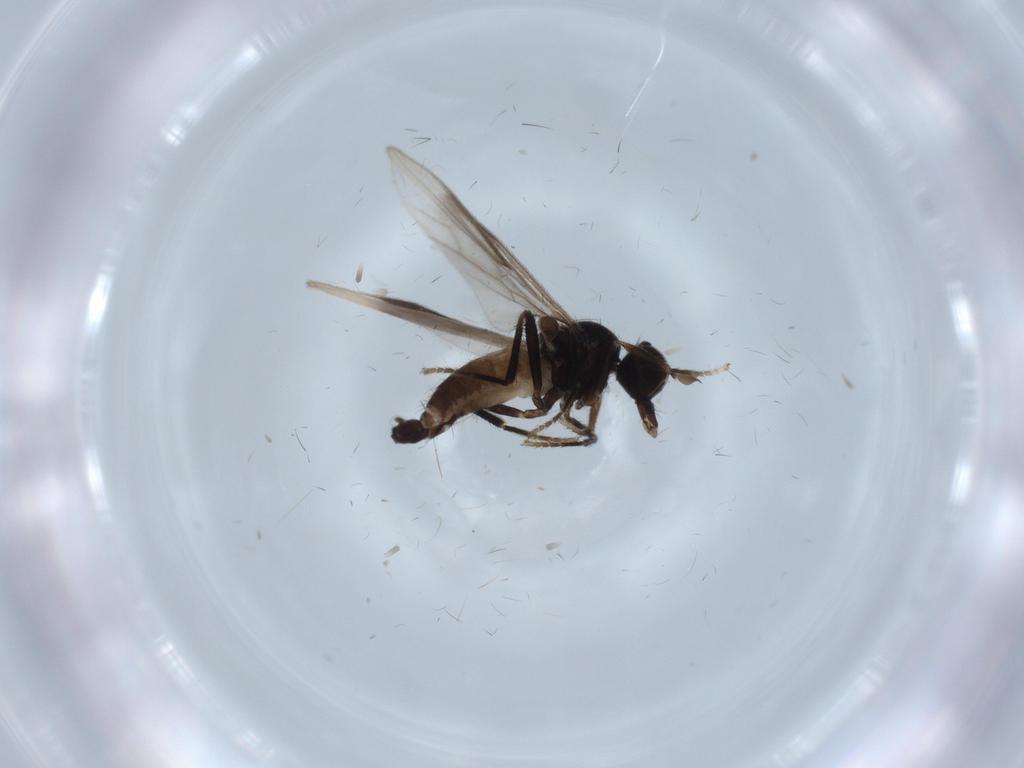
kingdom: Animalia
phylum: Arthropoda
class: Insecta
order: Diptera
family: Hybotidae
